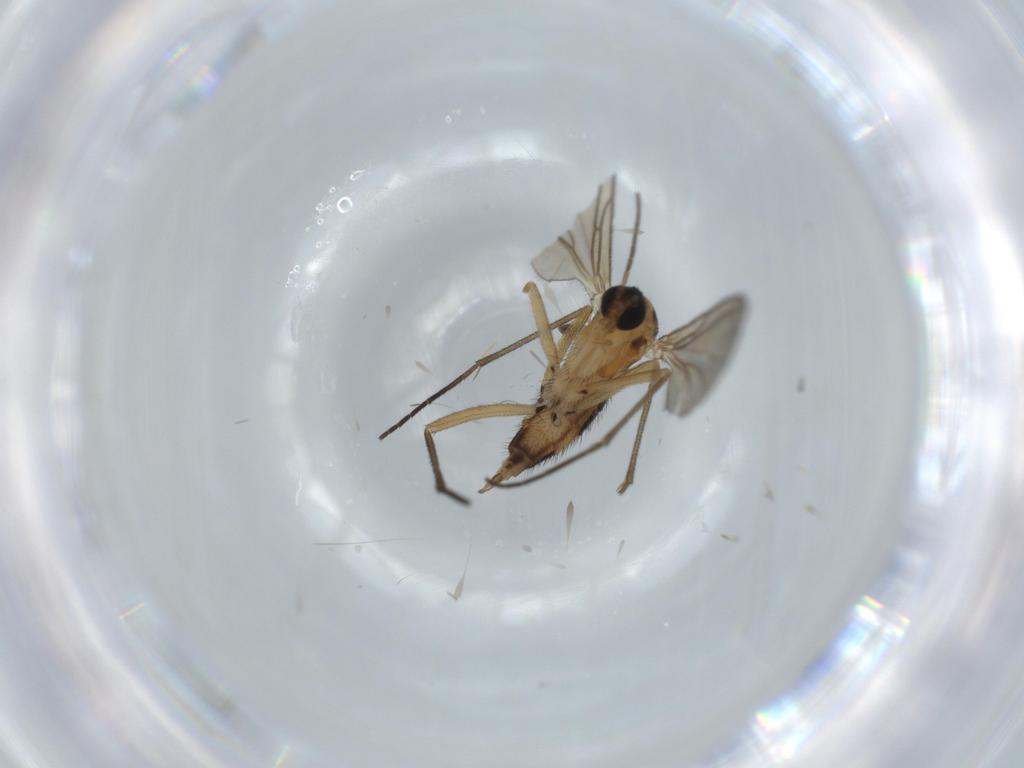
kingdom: Animalia
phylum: Arthropoda
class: Insecta
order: Diptera
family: Sciaridae
